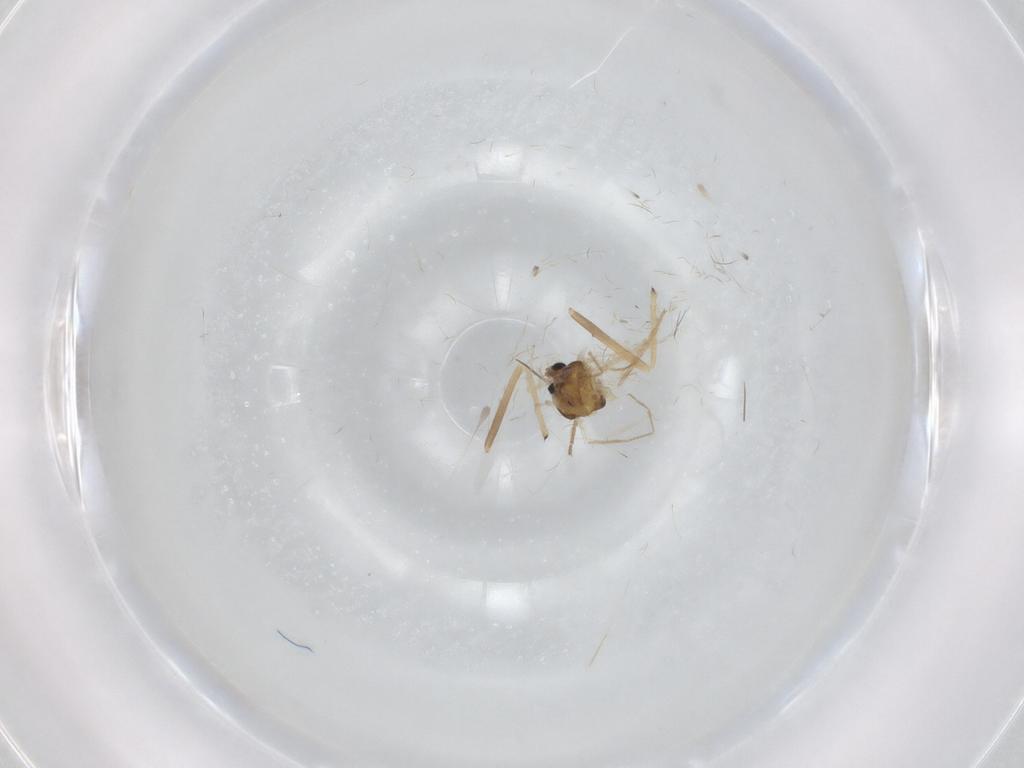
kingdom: Animalia
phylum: Arthropoda
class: Insecta
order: Diptera
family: Chironomidae
